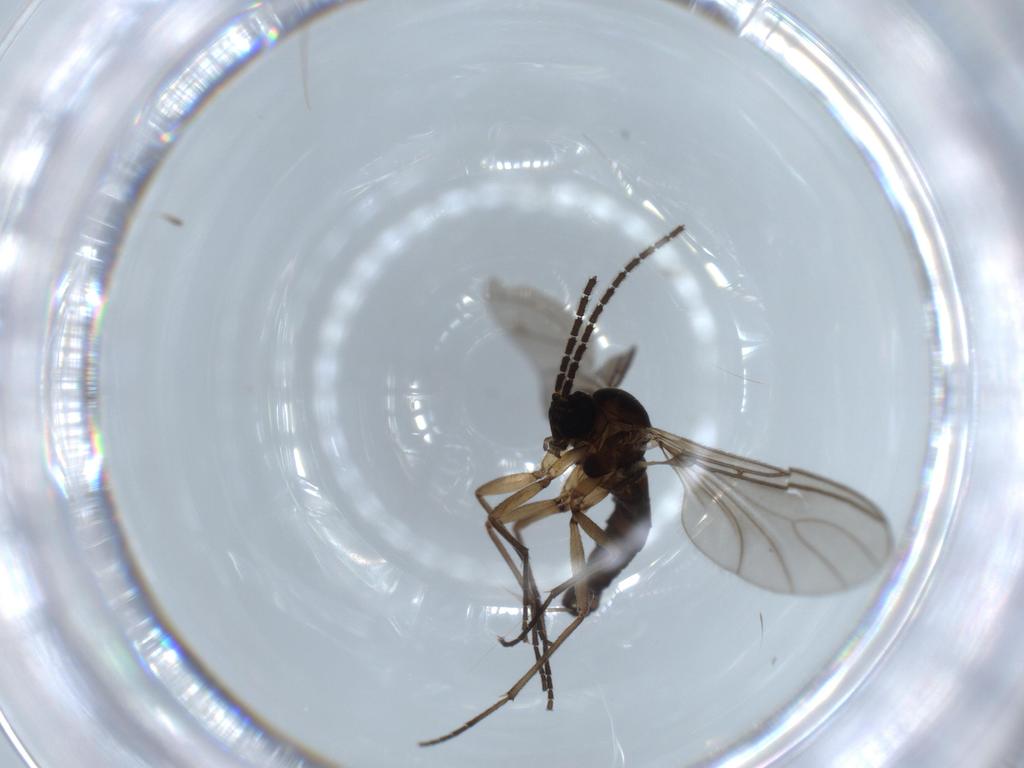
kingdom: Animalia
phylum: Arthropoda
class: Insecta
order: Diptera
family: Sciaridae
